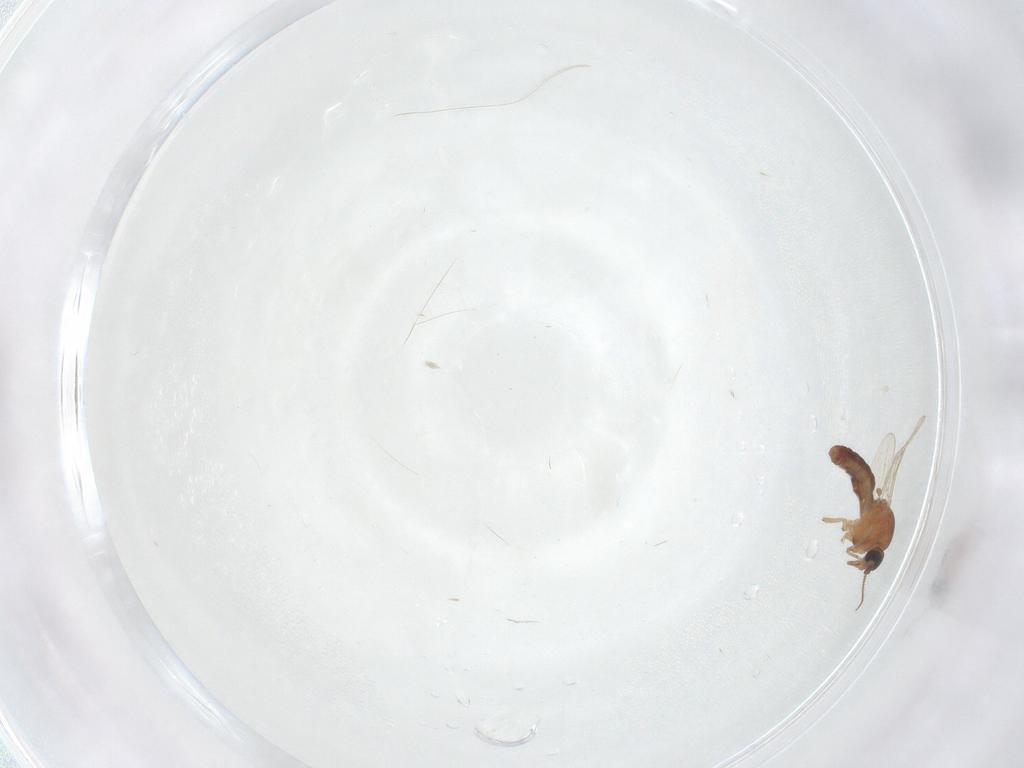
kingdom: Animalia
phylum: Arthropoda
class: Insecta
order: Diptera
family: Ceratopogonidae
